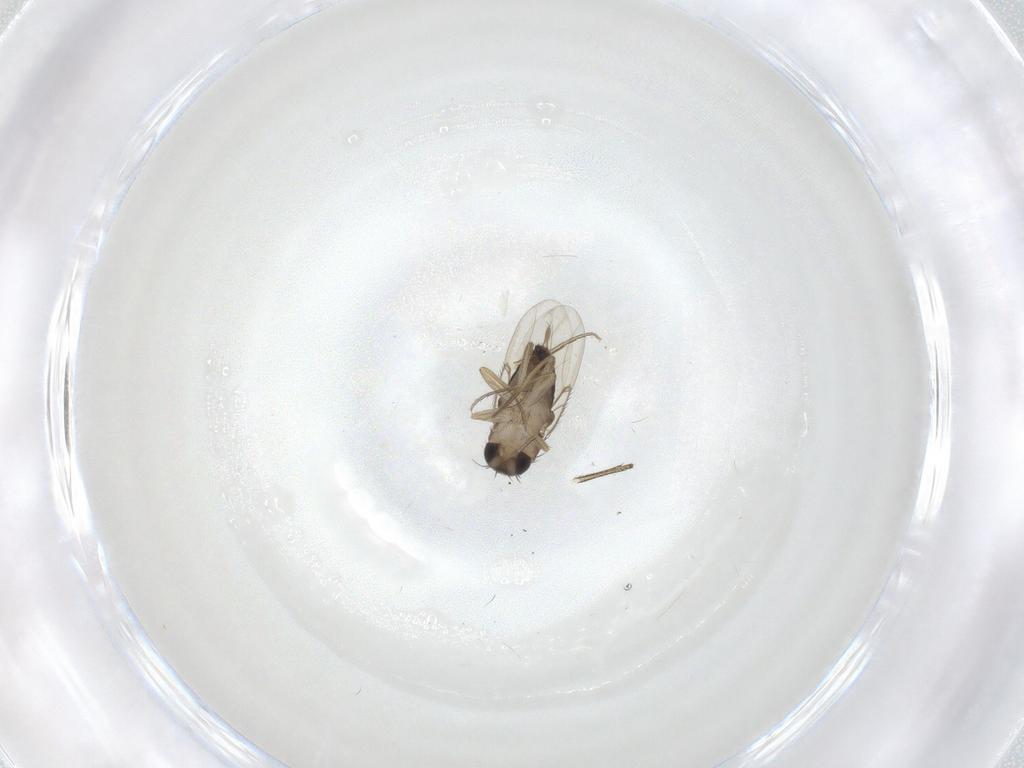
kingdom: Animalia
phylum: Arthropoda
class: Insecta
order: Diptera
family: Phoridae
